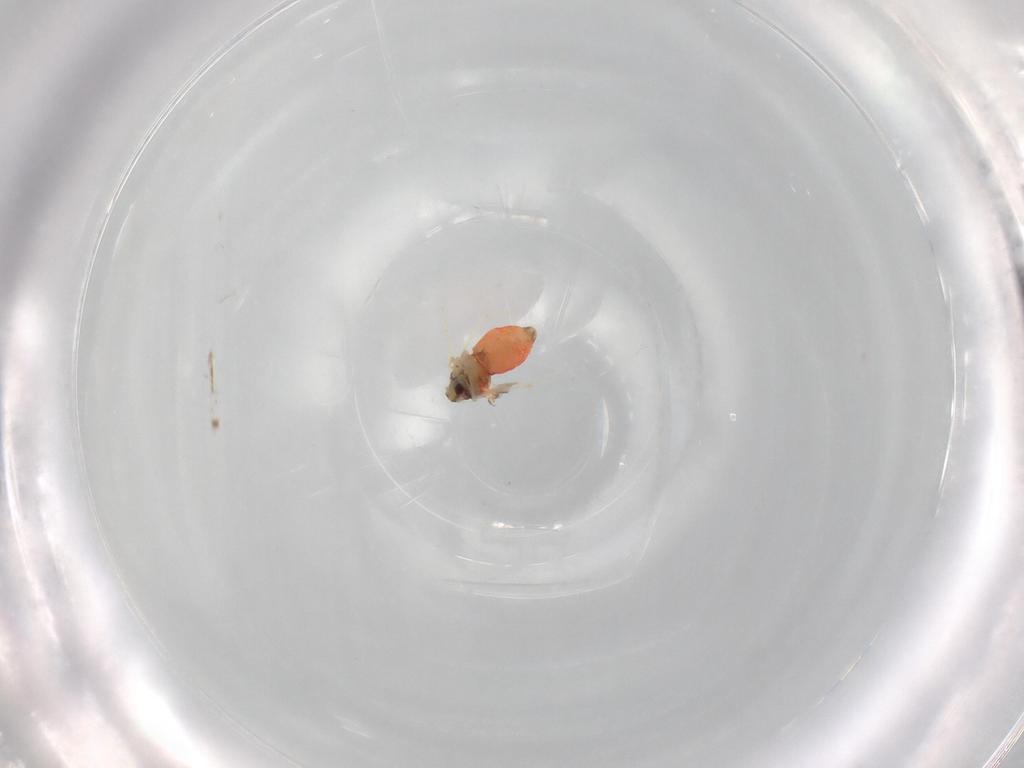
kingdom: Animalia
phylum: Arthropoda
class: Insecta
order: Hemiptera
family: Aleyrodidae
